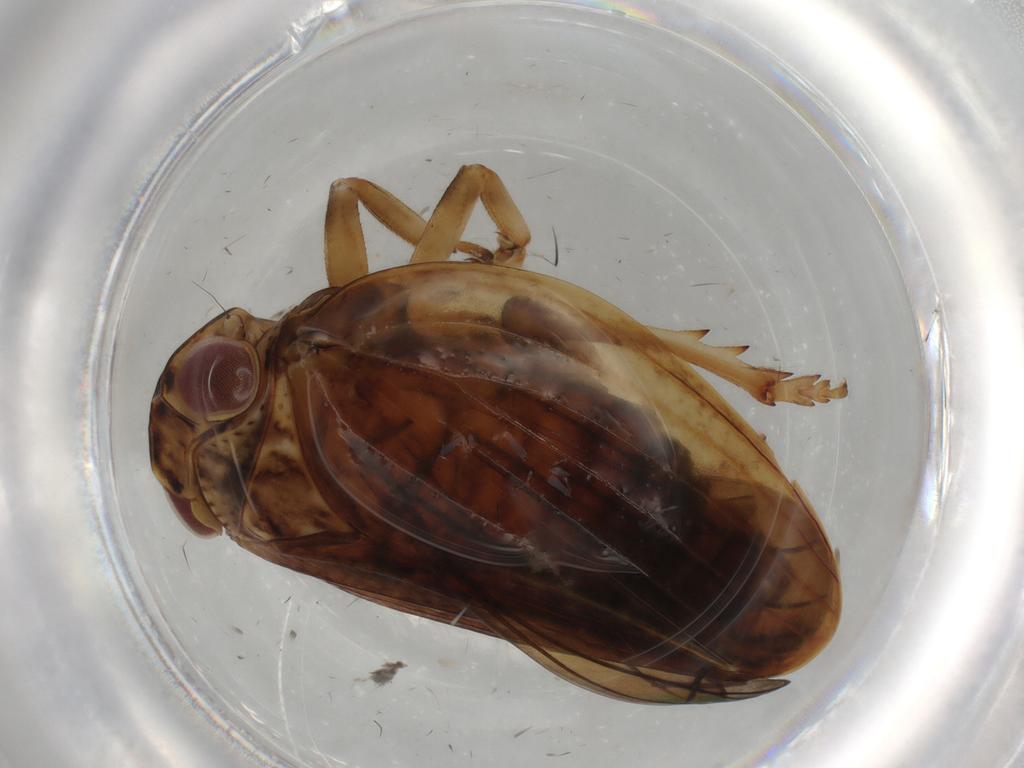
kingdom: Animalia
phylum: Arthropoda
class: Insecta
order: Hemiptera
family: Issidae
